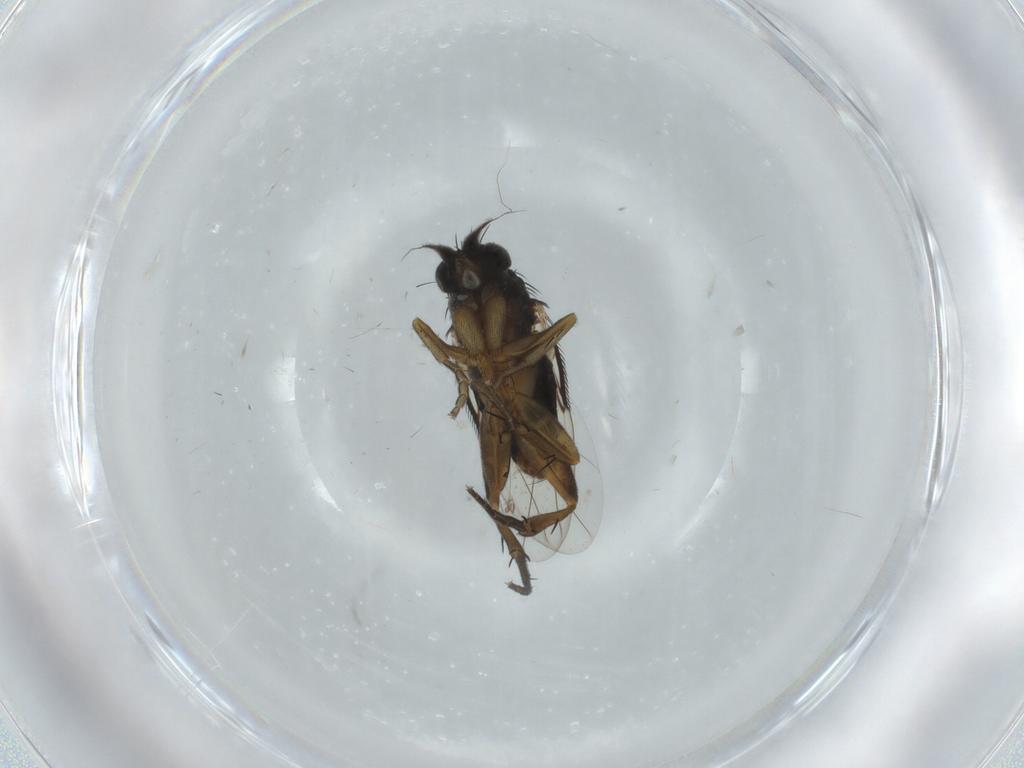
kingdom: Animalia
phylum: Arthropoda
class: Insecta
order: Diptera
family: Phoridae
